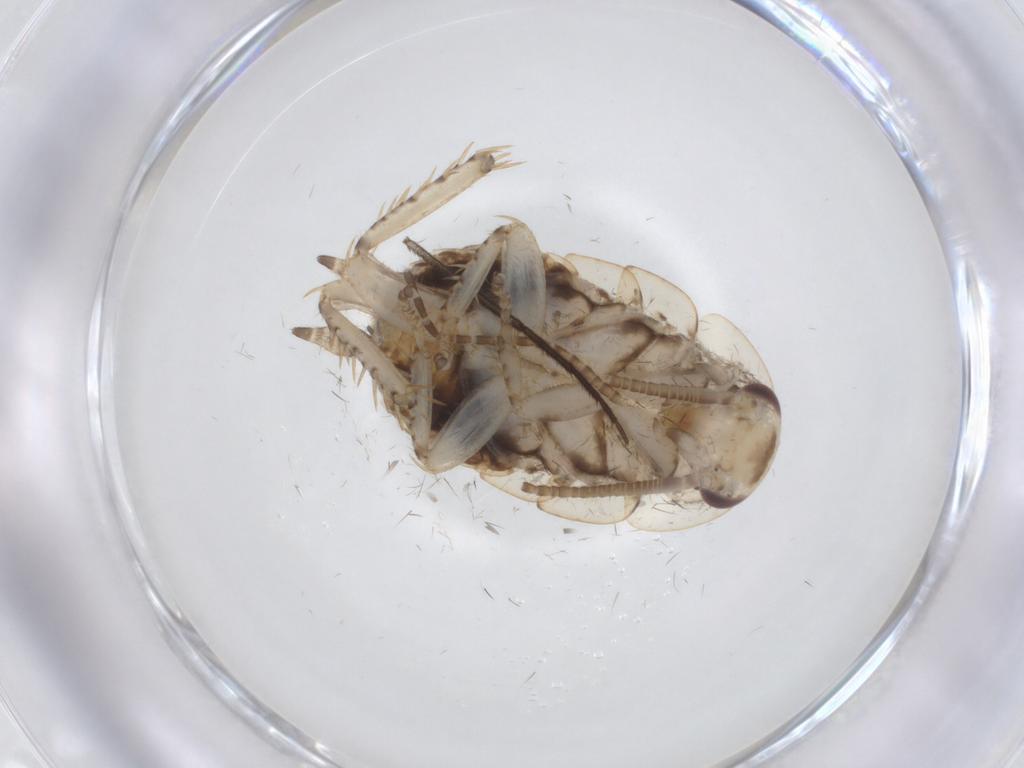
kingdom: Animalia
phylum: Arthropoda
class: Insecta
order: Blattodea
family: Ectobiidae
